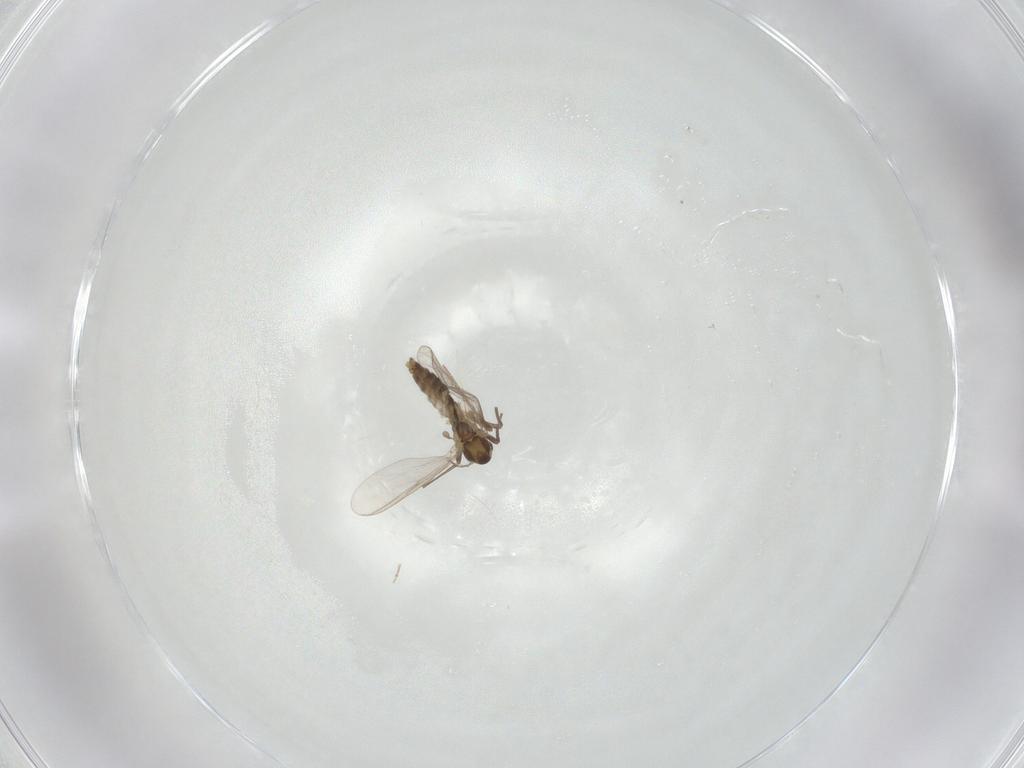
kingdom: Animalia
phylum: Arthropoda
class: Insecta
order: Diptera
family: Chironomidae
